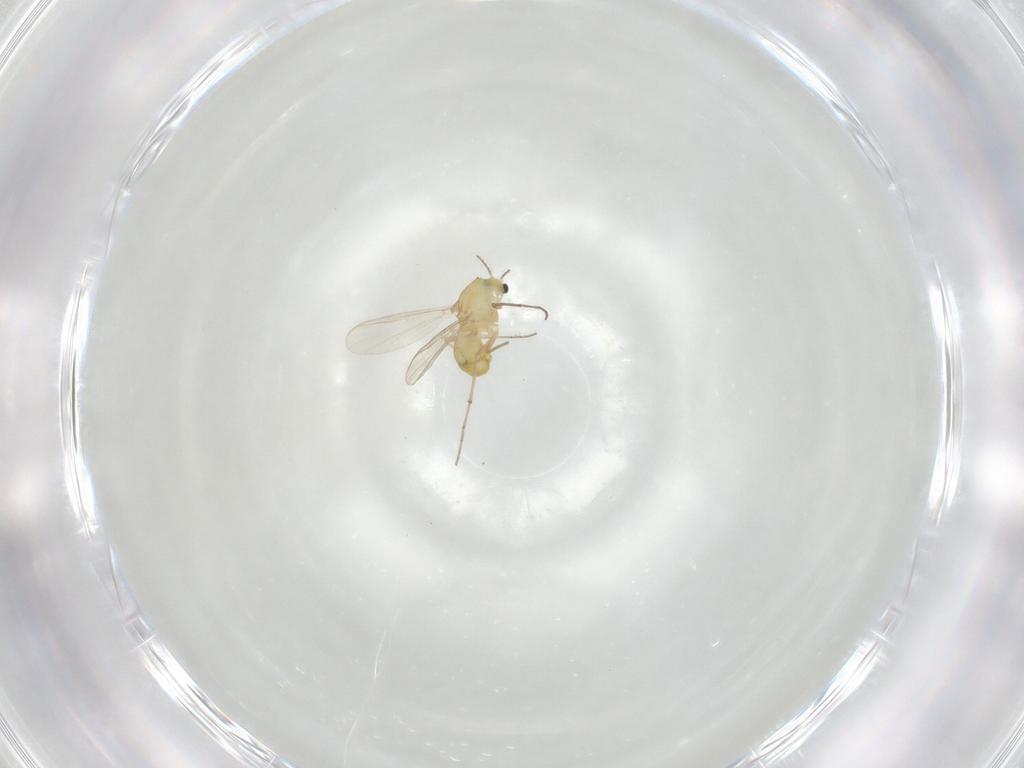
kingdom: Animalia
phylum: Arthropoda
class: Insecta
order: Diptera
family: Chironomidae
